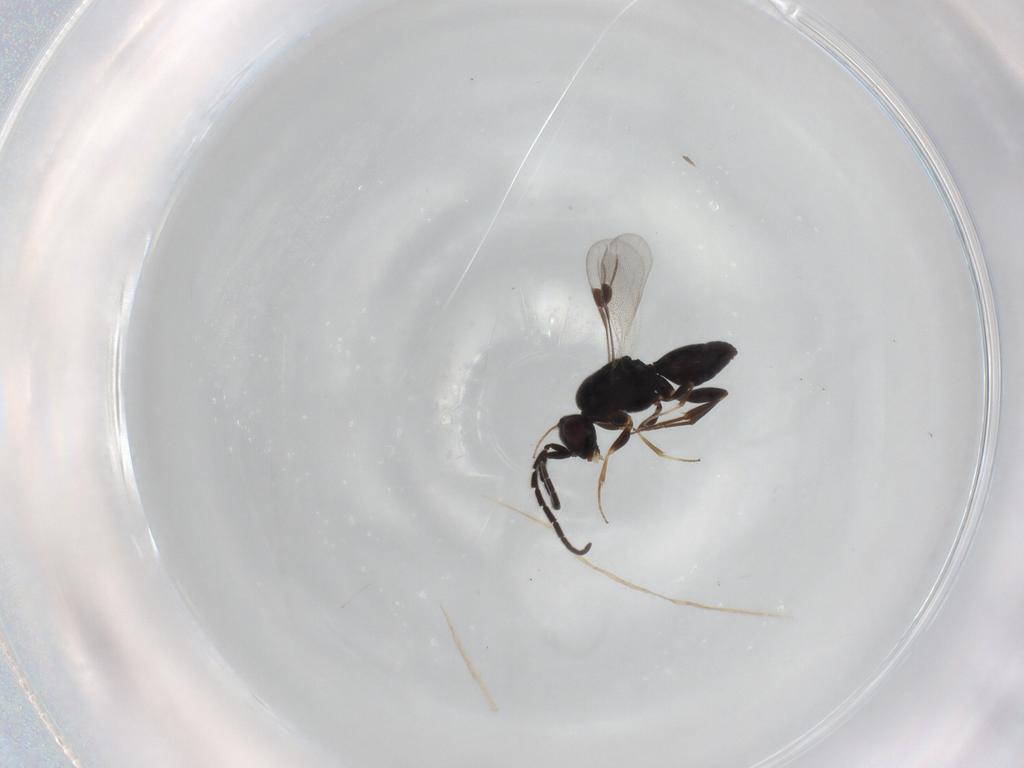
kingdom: Animalia
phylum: Arthropoda
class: Insecta
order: Hymenoptera
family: Megaspilidae
